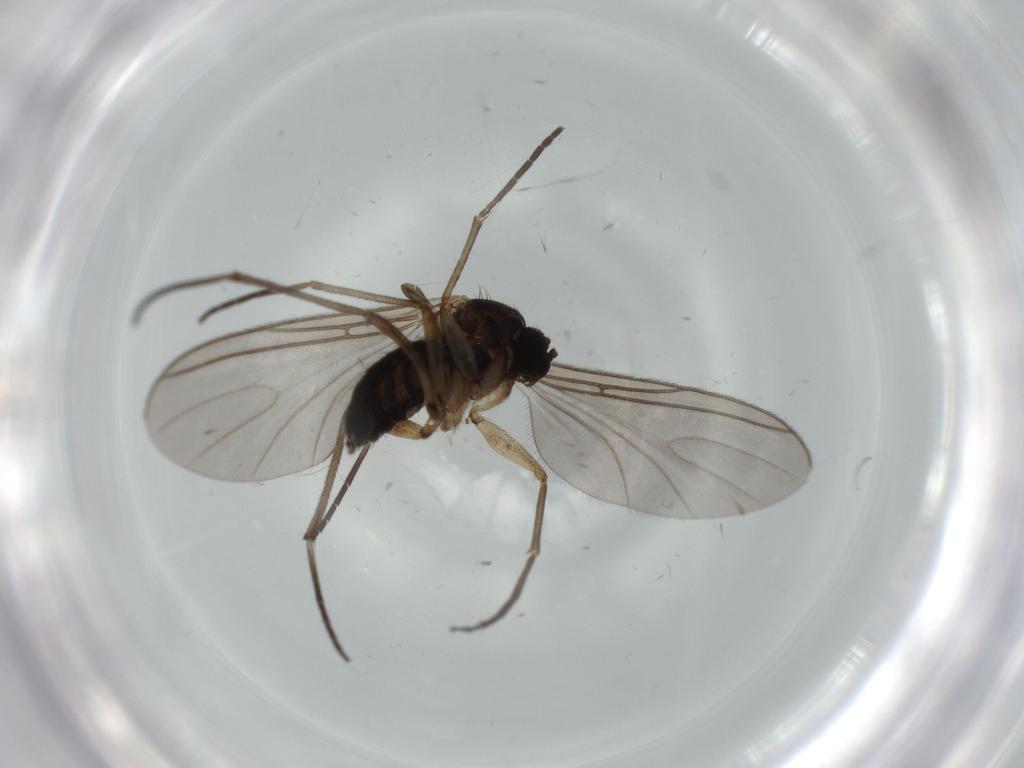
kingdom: Animalia
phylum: Arthropoda
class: Insecta
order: Diptera
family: Sciaridae
